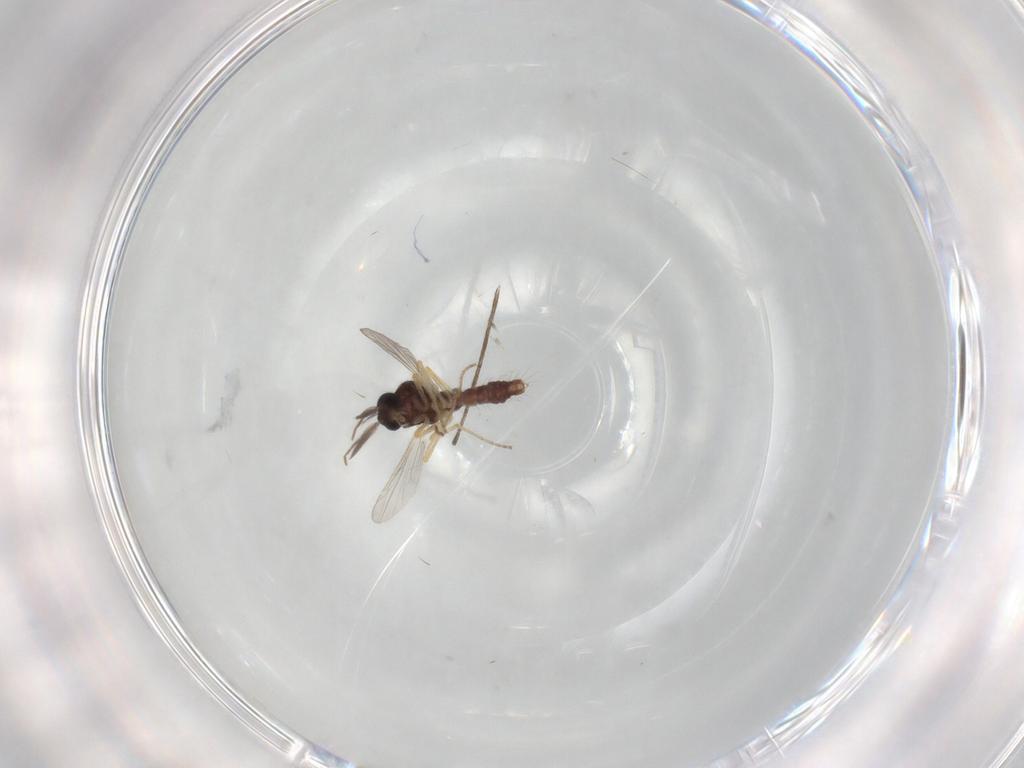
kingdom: Animalia
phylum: Arthropoda
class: Insecta
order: Diptera
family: Ceratopogonidae
